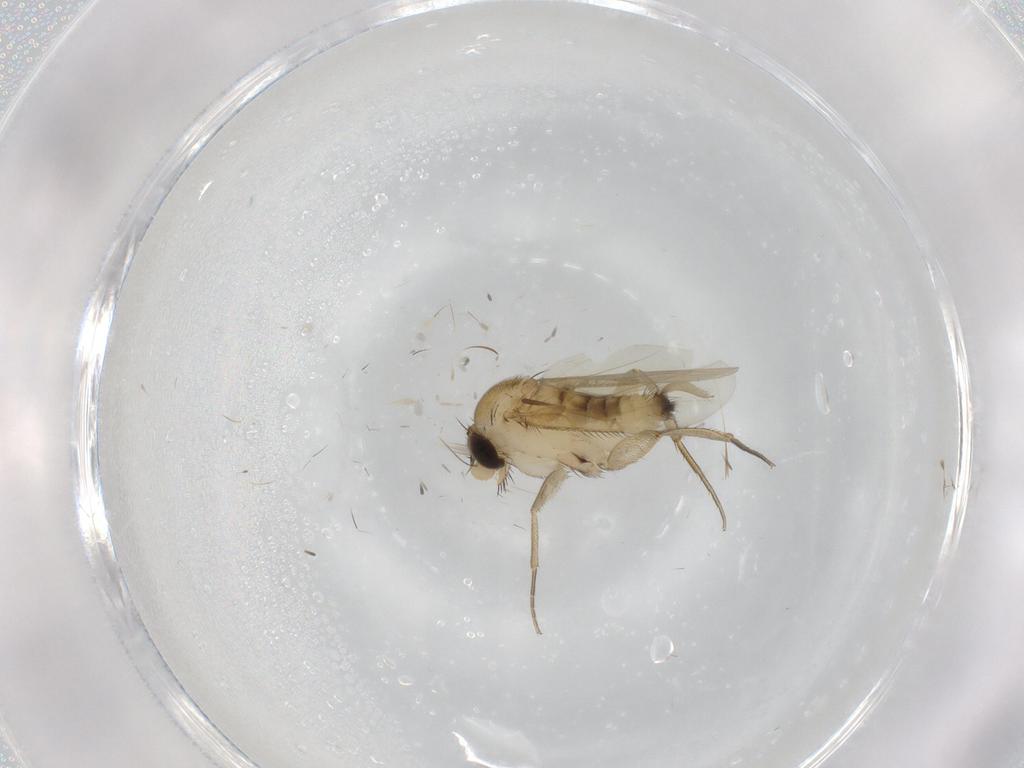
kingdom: Animalia
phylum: Arthropoda
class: Insecta
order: Diptera
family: Phoridae
